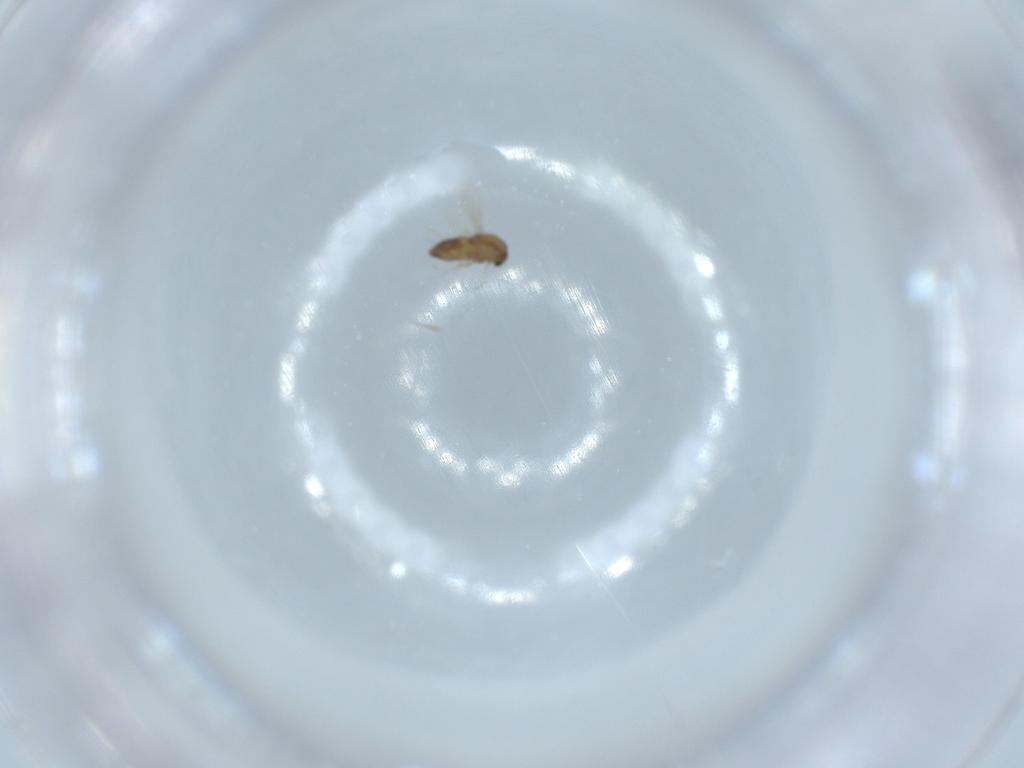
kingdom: Animalia
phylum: Arthropoda
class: Insecta
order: Diptera
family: Chironomidae
